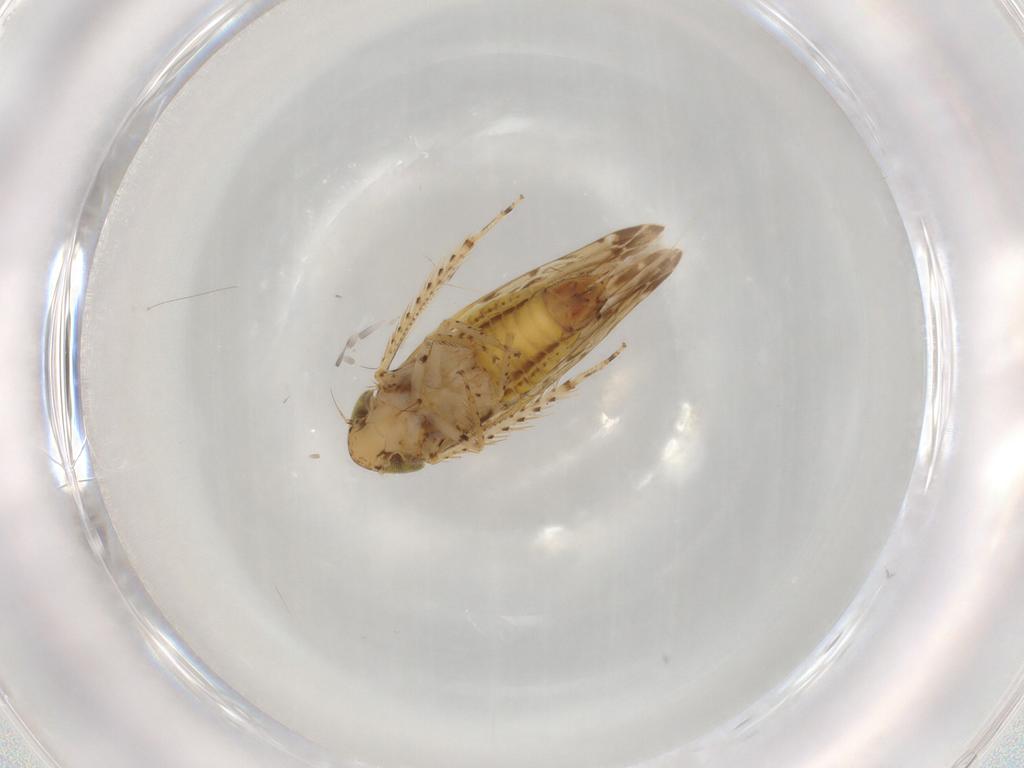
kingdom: Animalia
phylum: Arthropoda
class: Insecta
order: Hemiptera
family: Cicadellidae
